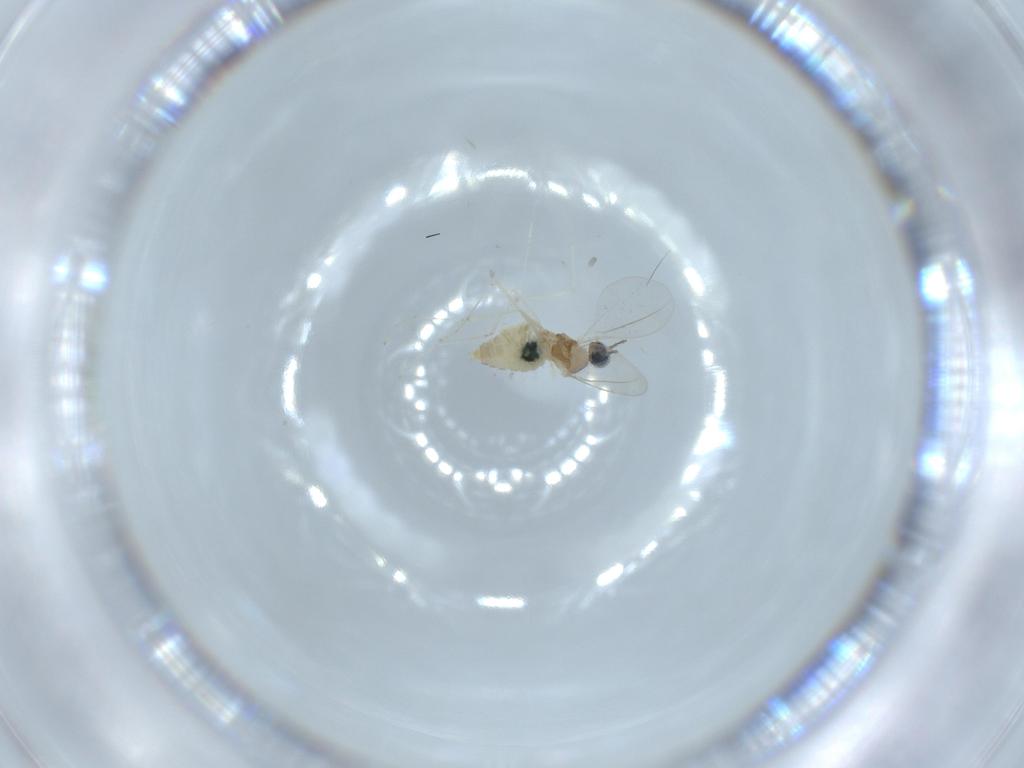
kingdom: Animalia
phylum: Arthropoda
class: Insecta
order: Diptera
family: Cecidomyiidae
